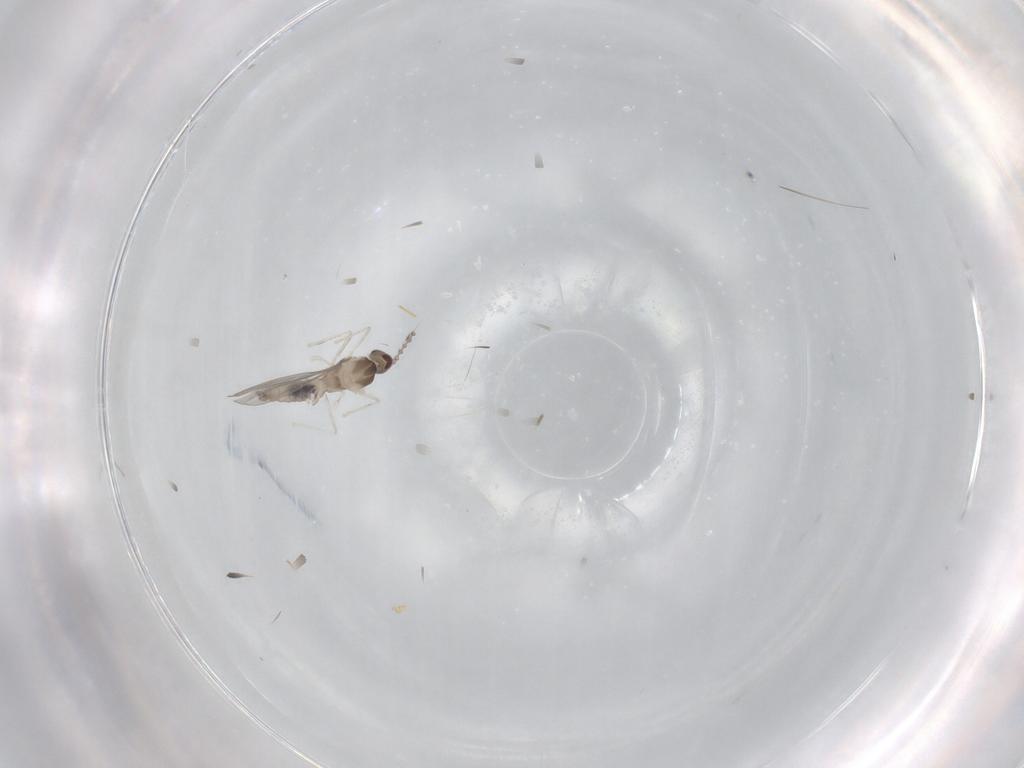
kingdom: Animalia
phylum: Arthropoda
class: Insecta
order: Diptera
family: Cecidomyiidae
